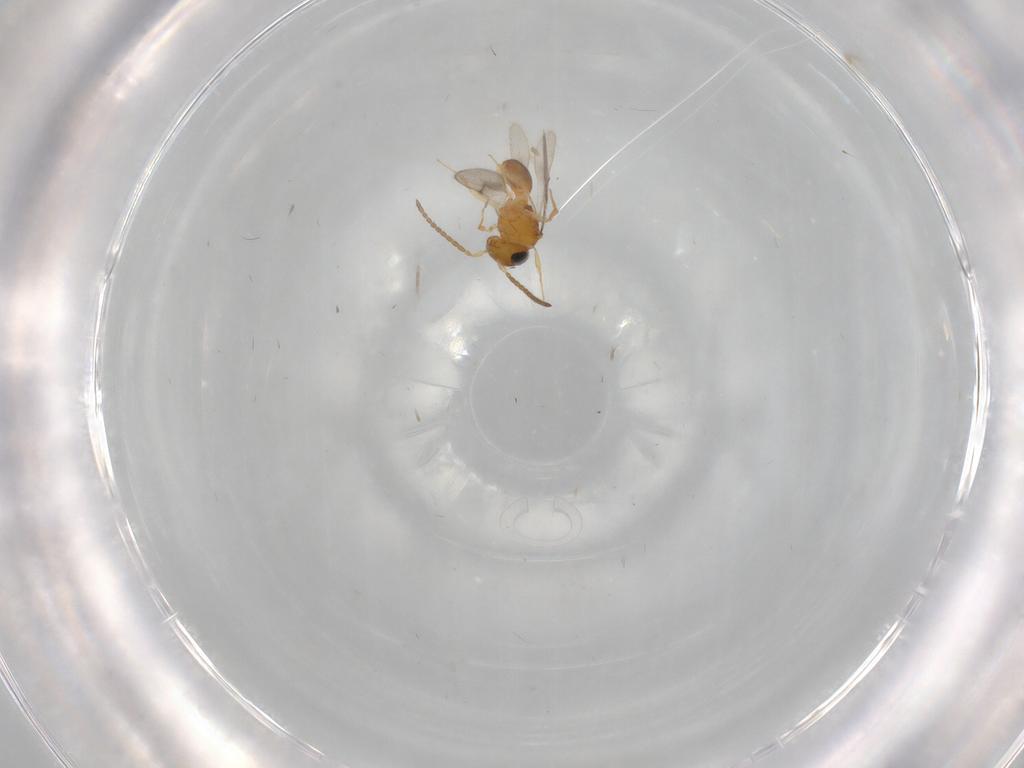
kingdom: Animalia
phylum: Arthropoda
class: Insecta
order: Hymenoptera
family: Scelionidae
